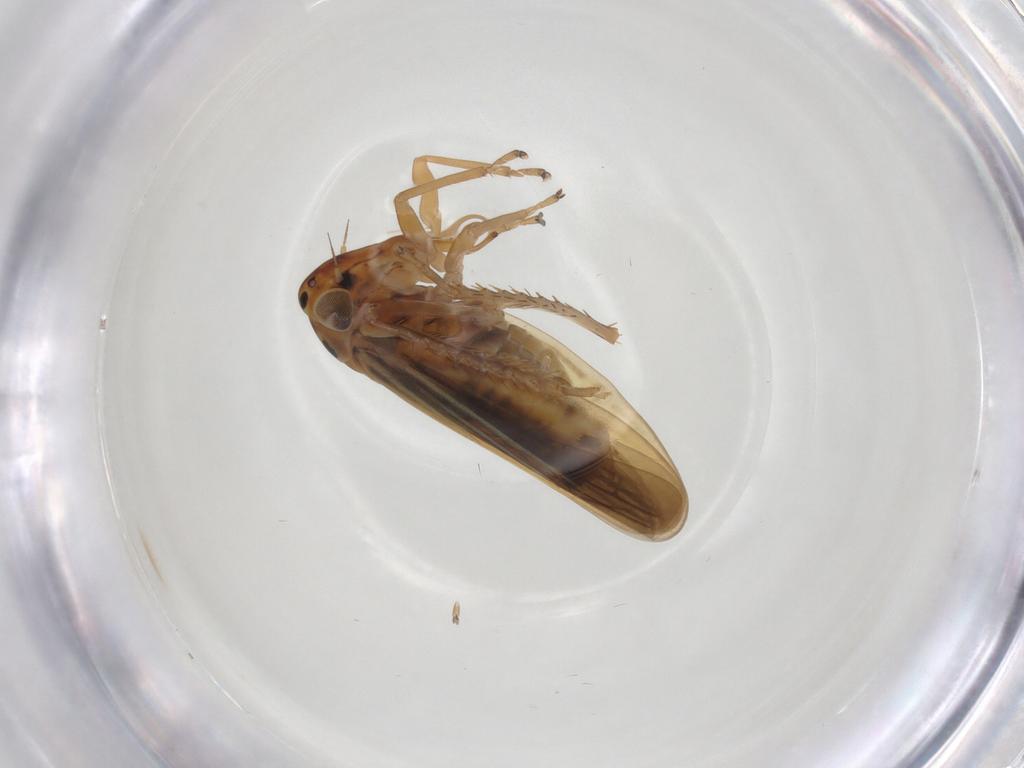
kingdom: Animalia
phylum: Arthropoda
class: Insecta
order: Hemiptera
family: Cicadellidae
